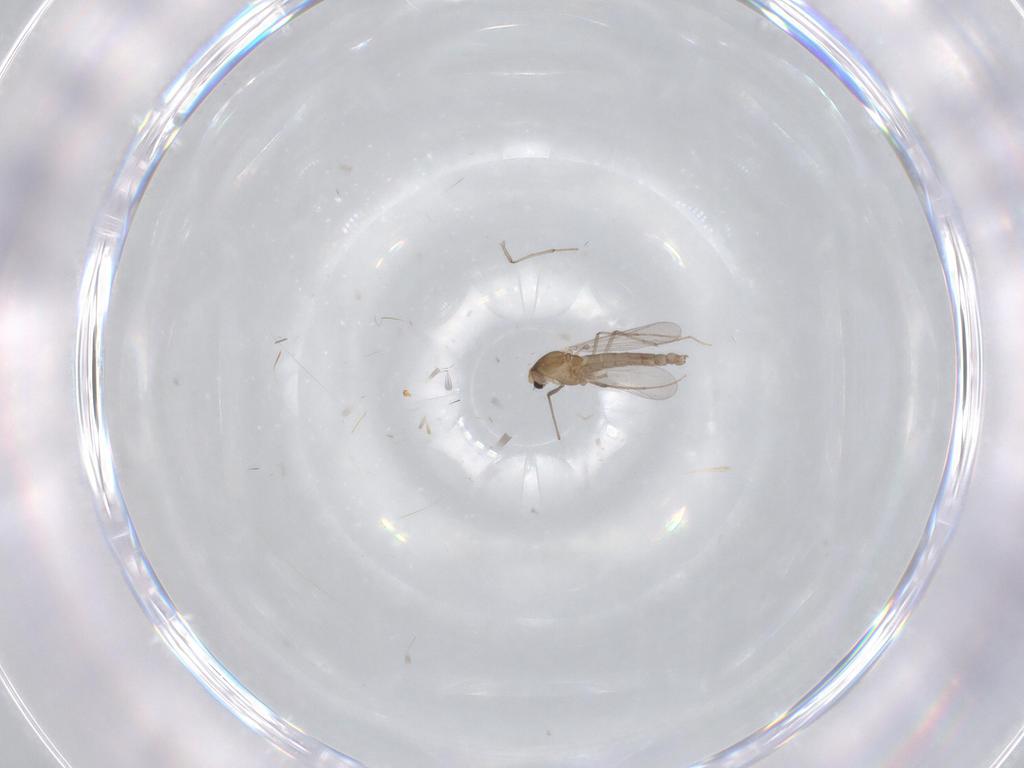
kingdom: Animalia
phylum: Arthropoda
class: Insecta
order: Diptera
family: Chironomidae
